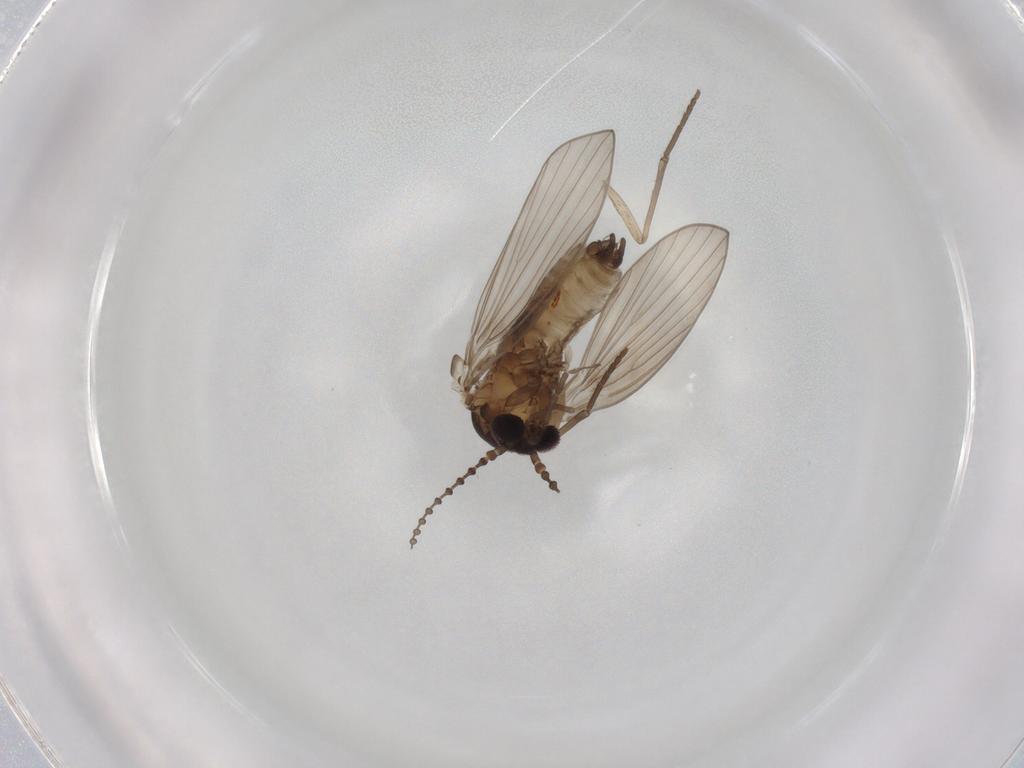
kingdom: Animalia
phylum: Arthropoda
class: Insecta
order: Diptera
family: Psychodidae
